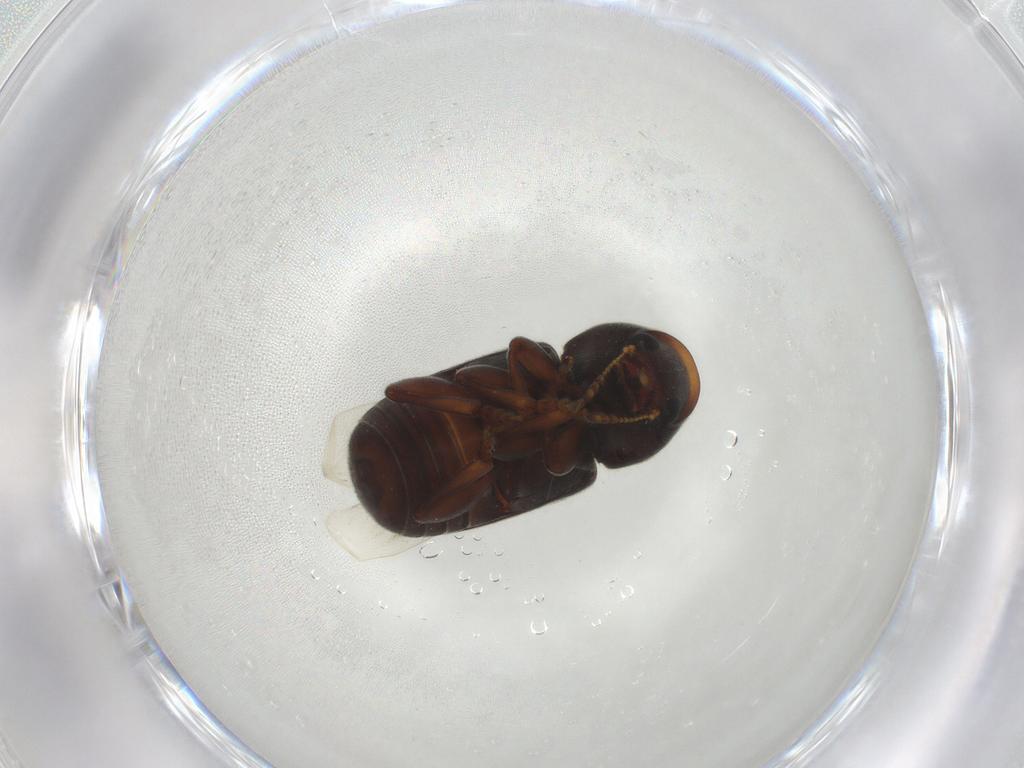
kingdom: Animalia
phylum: Arthropoda
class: Insecta
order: Coleoptera
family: Anthribidae
